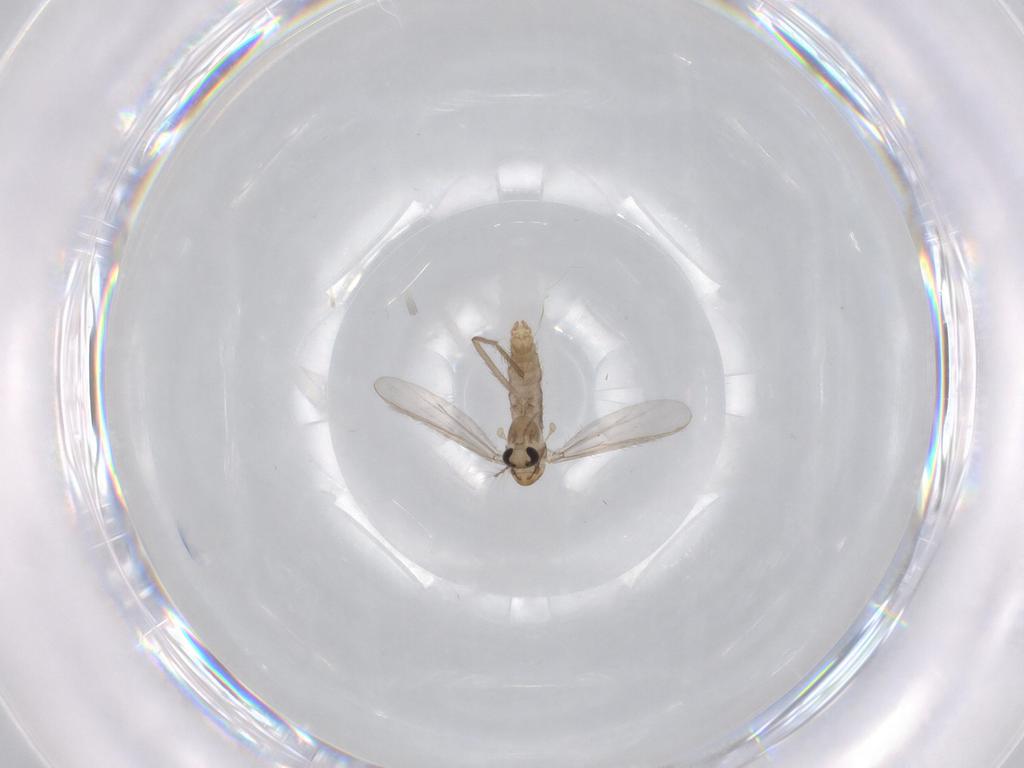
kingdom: Animalia
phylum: Arthropoda
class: Insecta
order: Diptera
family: Chironomidae
